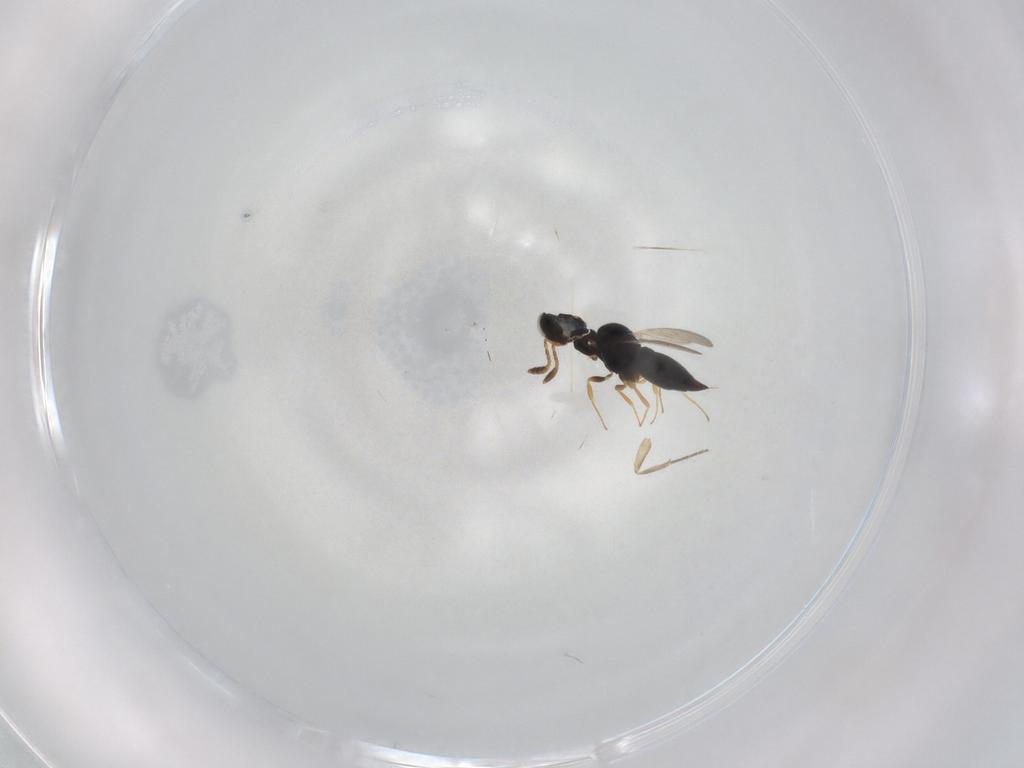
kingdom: Animalia
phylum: Arthropoda
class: Insecta
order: Hymenoptera
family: Scelionidae
